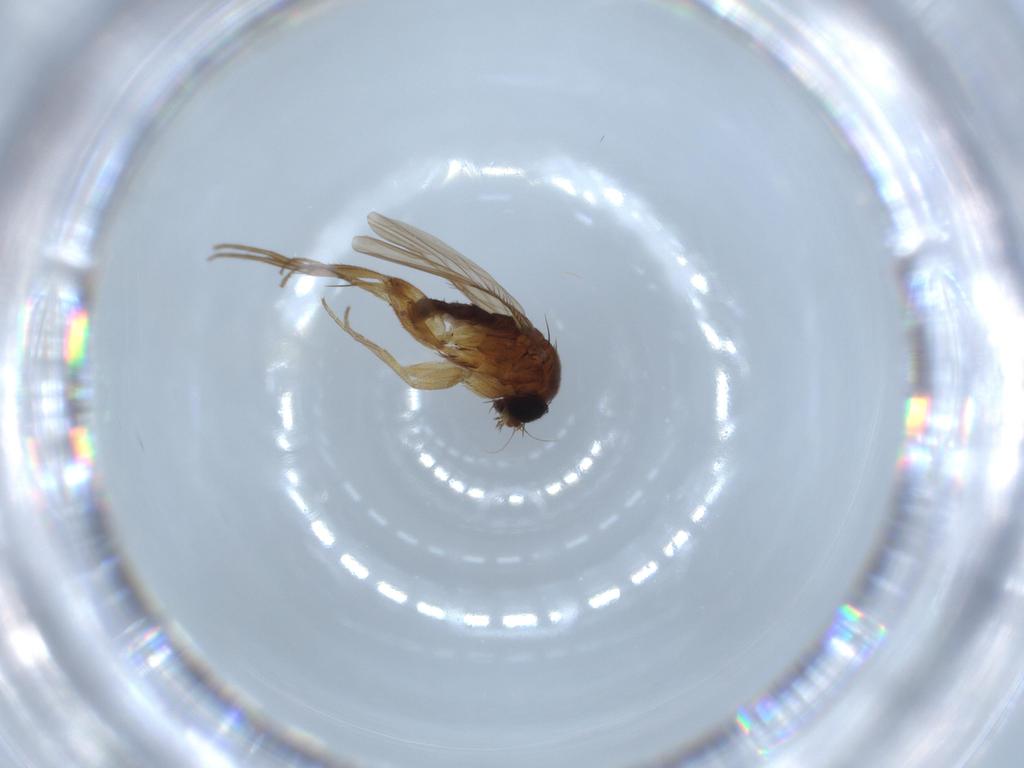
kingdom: Animalia
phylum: Arthropoda
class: Insecta
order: Diptera
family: Phoridae
